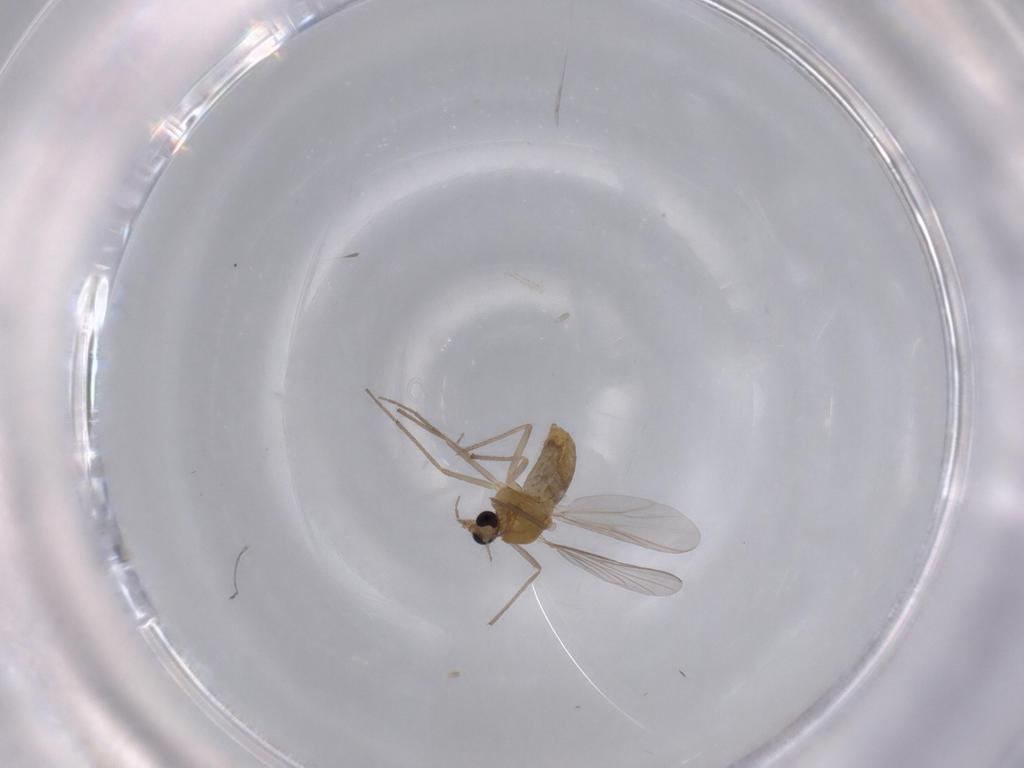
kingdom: Animalia
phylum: Arthropoda
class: Insecta
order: Diptera
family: Chironomidae
